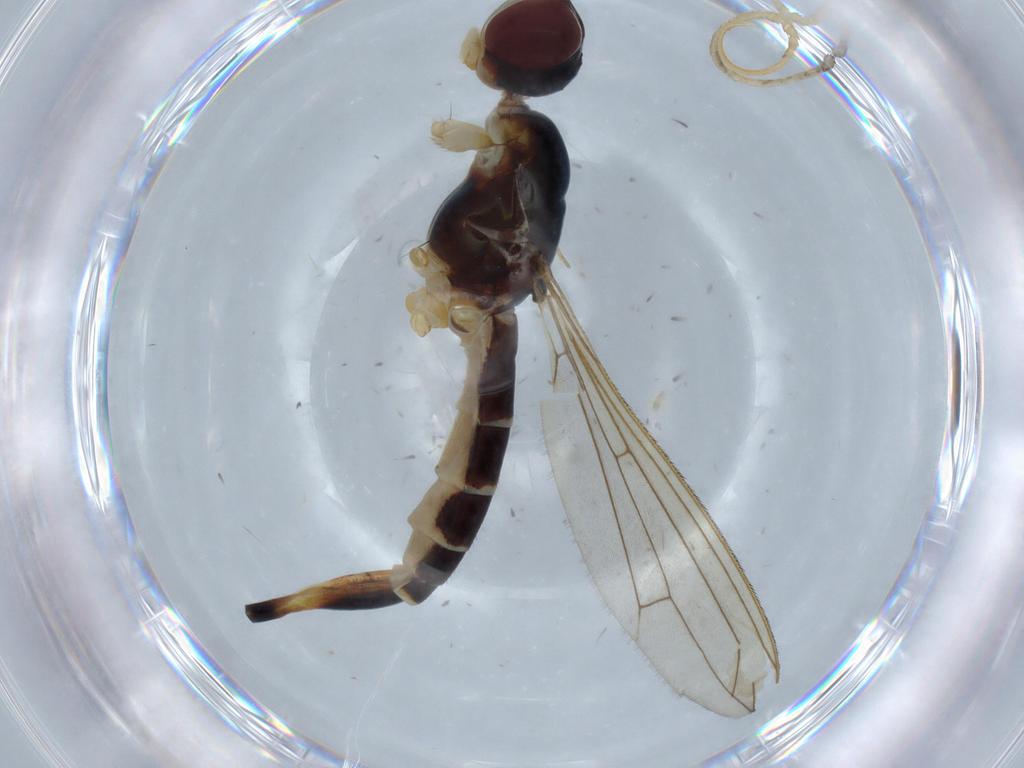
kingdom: Animalia
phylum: Arthropoda
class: Insecta
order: Diptera
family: Micropezidae
